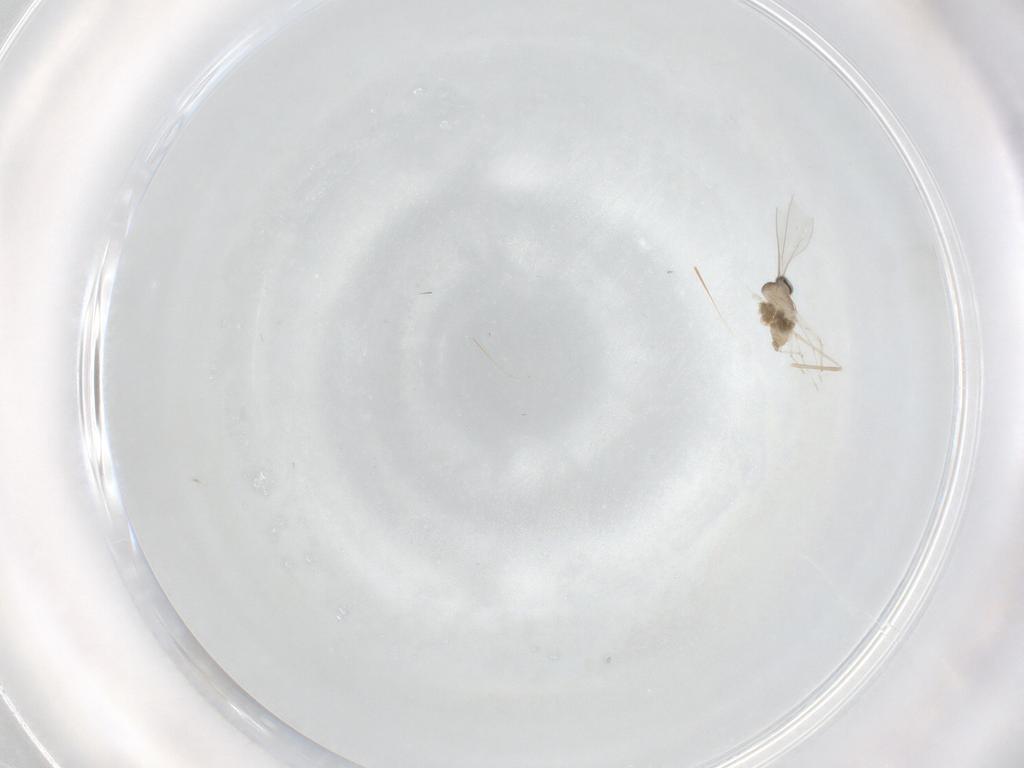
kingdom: Animalia
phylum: Arthropoda
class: Insecta
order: Diptera
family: Cecidomyiidae
